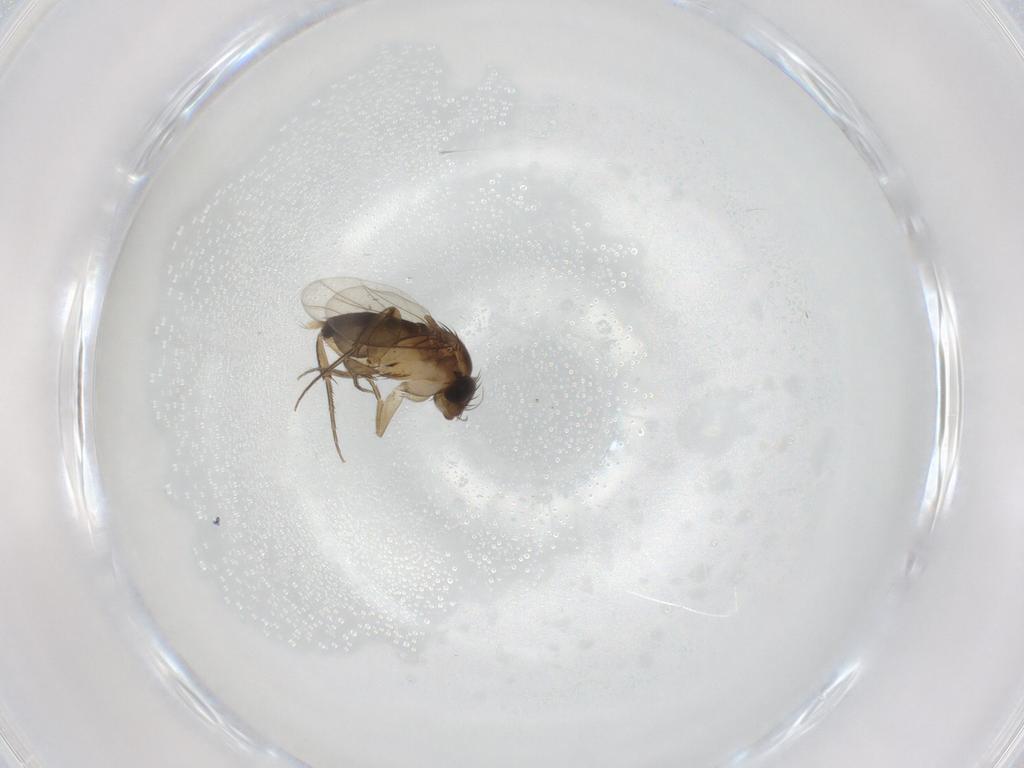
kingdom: Animalia
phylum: Arthropoda
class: Insecta
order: Diptera
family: Phoridae
